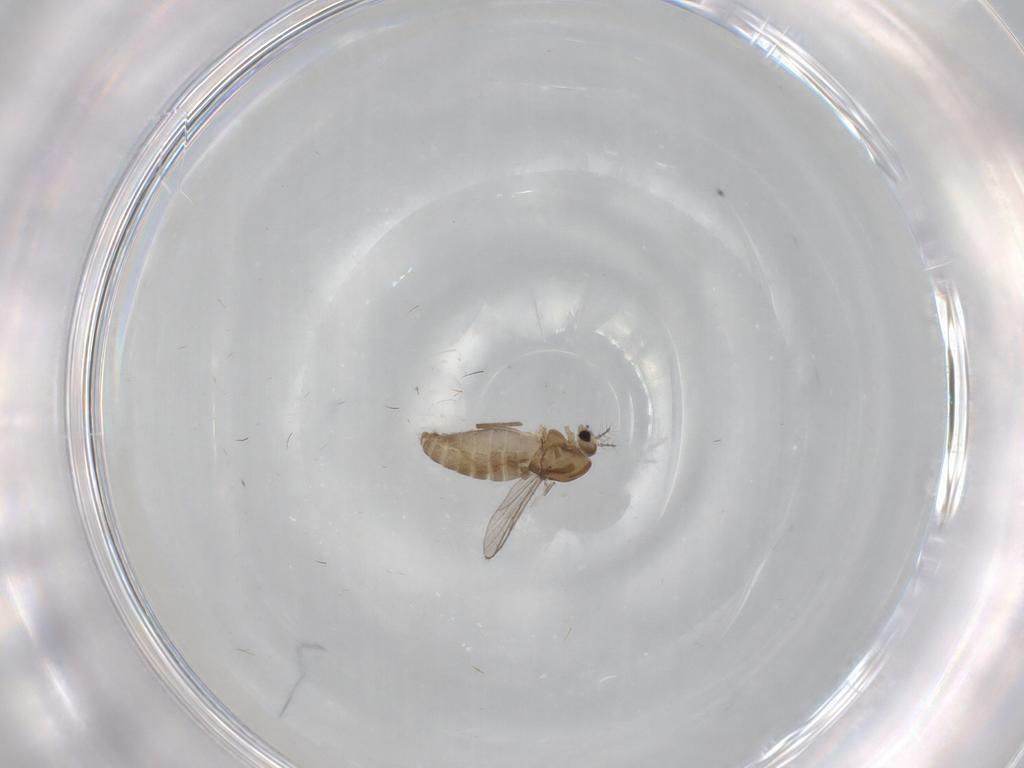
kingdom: Animalia
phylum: Arthropoda
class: Insecta
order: Diptera
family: Chironomidae
